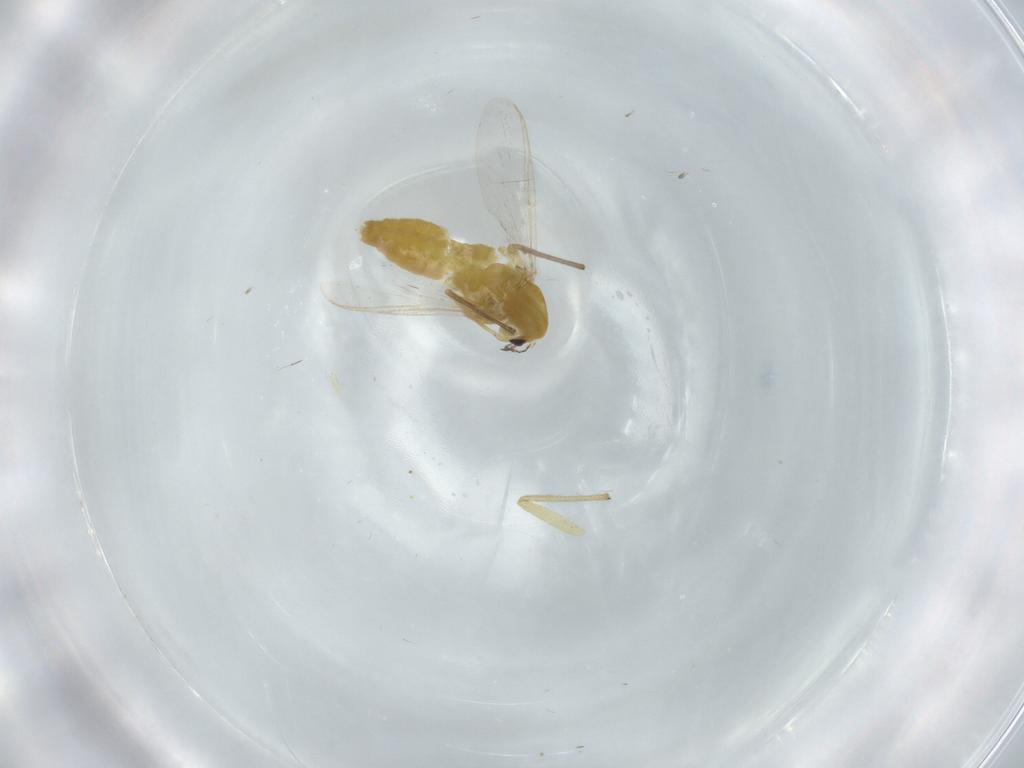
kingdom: Animalia
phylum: Arthropoda
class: Insecta
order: Diptera
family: Chironomidae
